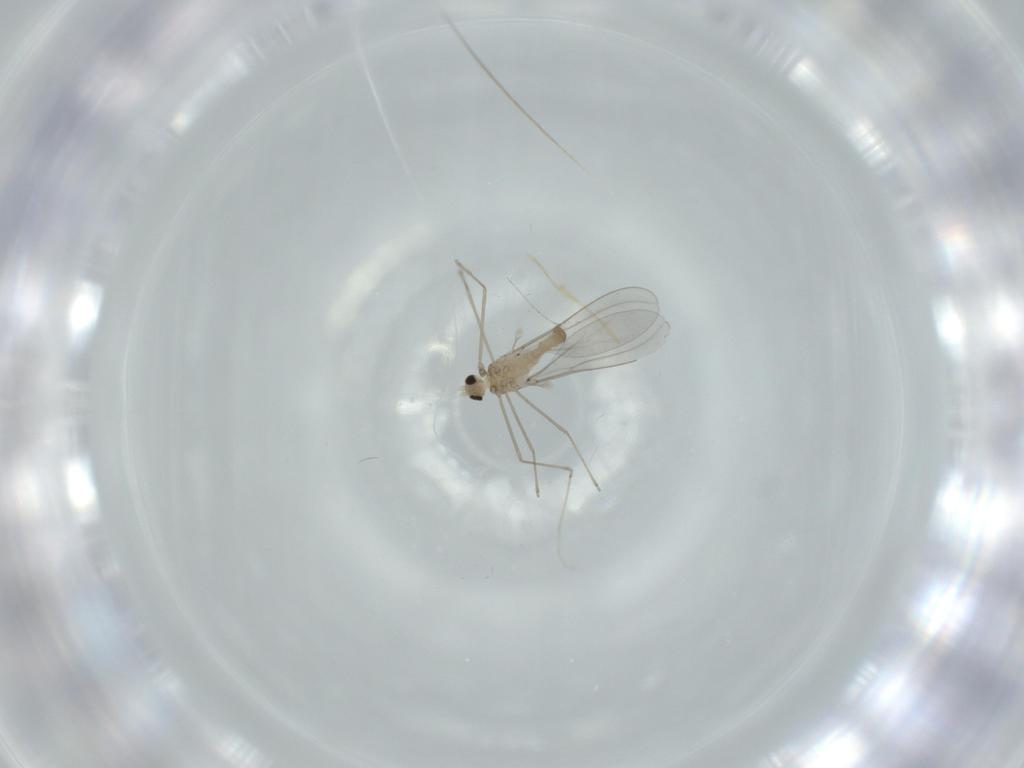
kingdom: Animalia
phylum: Arthropoda
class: Insecta
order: Diptera
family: Cecidomyiidae
